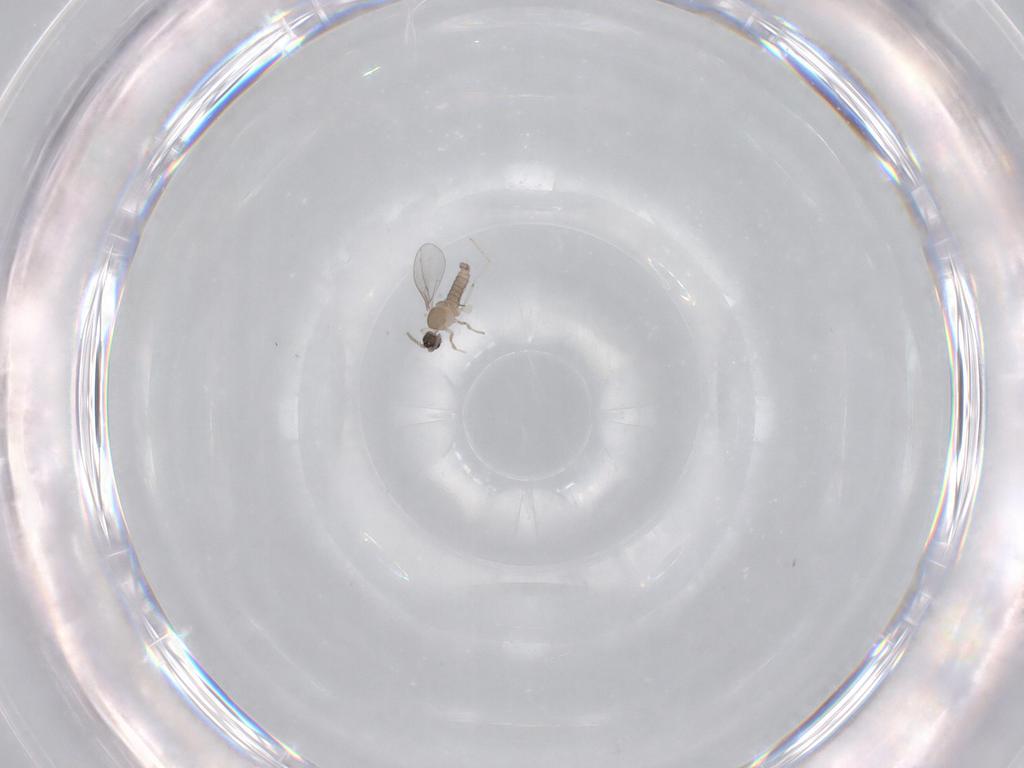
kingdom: Animalia
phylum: Arthropoda
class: Insecta
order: Diptera
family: Cecidomyiidae
